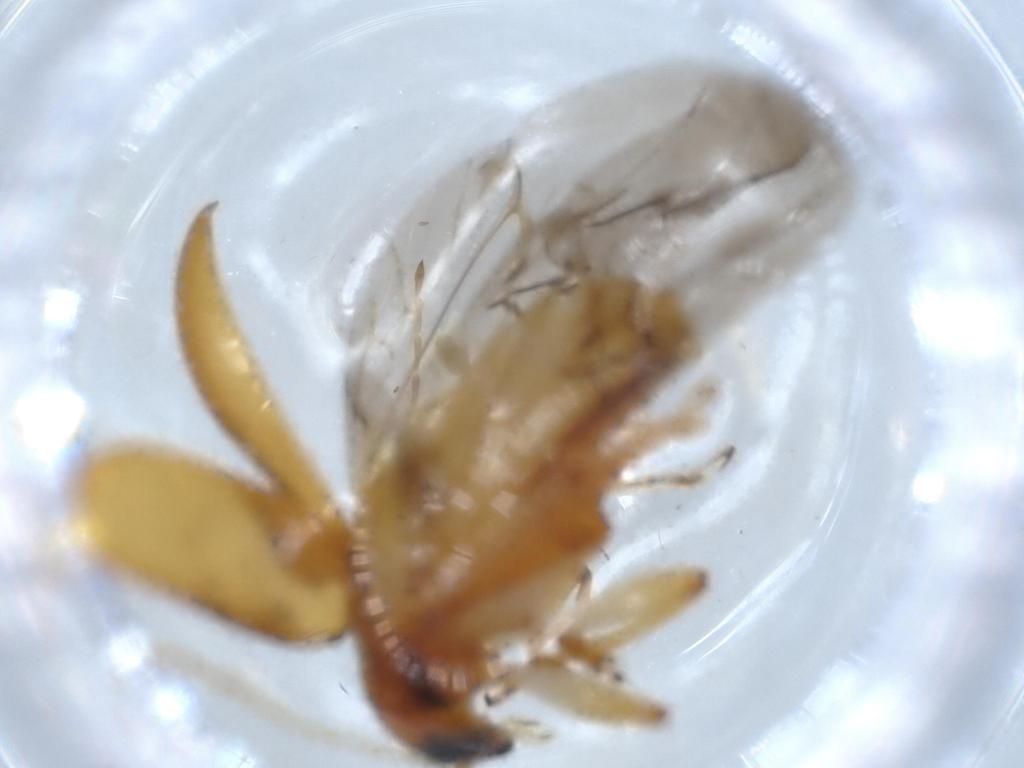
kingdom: Animalia
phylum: Arthropoda
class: Insecta
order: Coleoptera
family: Chrysomelidae
